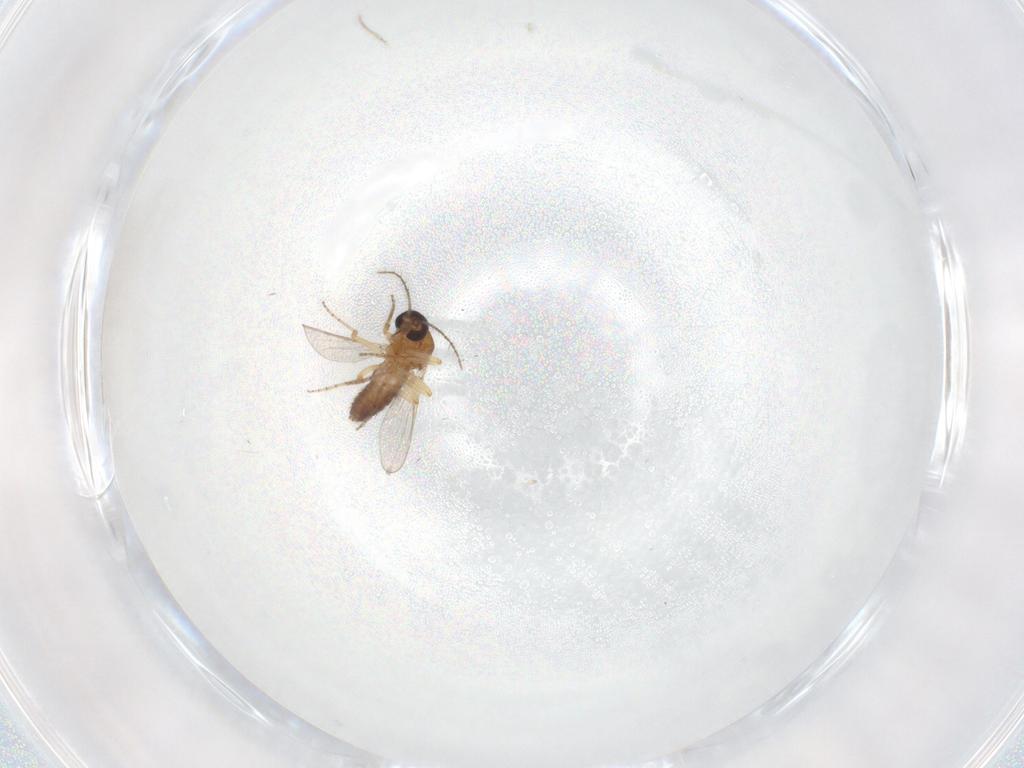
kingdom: Animalia
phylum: Arthropoda
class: Insecta
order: Diptera
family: Ceratopogonidae
